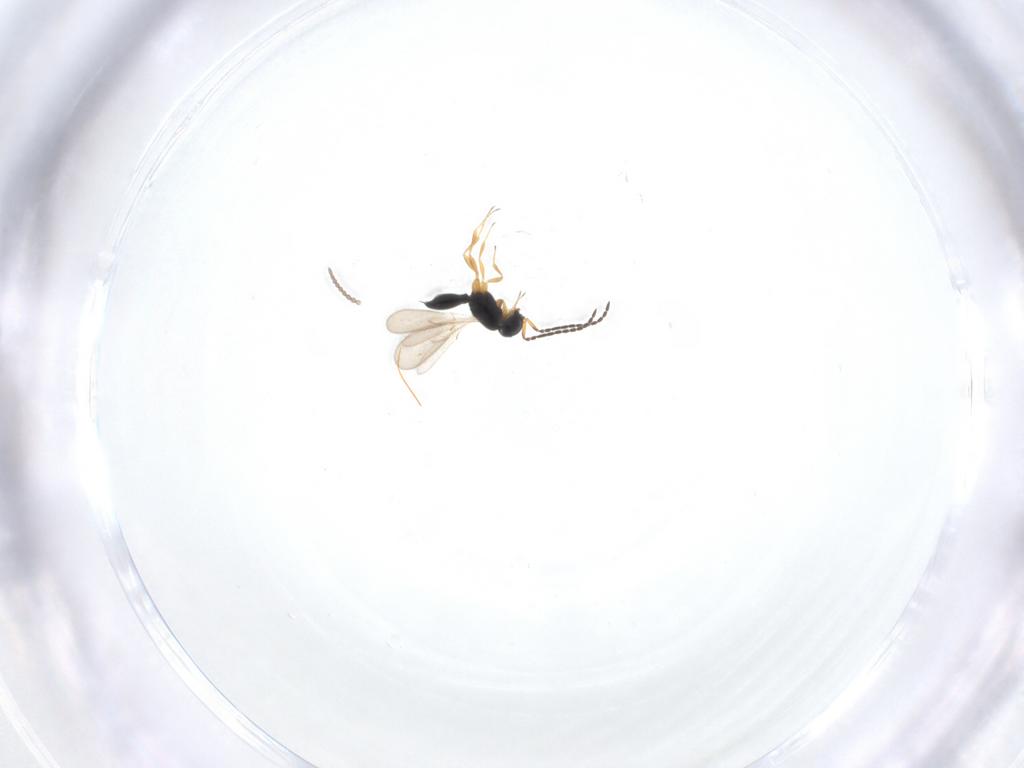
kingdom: Animalia
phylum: Arthropoda
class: Insecta
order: Hymenoptera
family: Scelionidae
